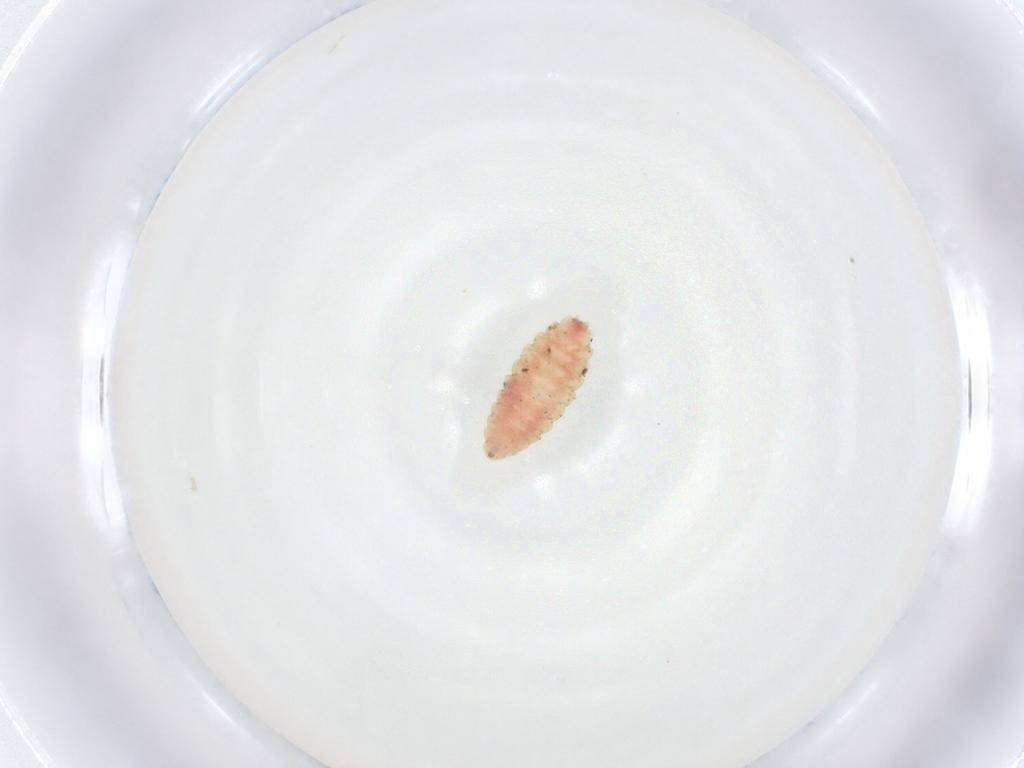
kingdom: Animalia
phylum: Arthropoda
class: Insecta
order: Diptera
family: Cecidomyiidae
